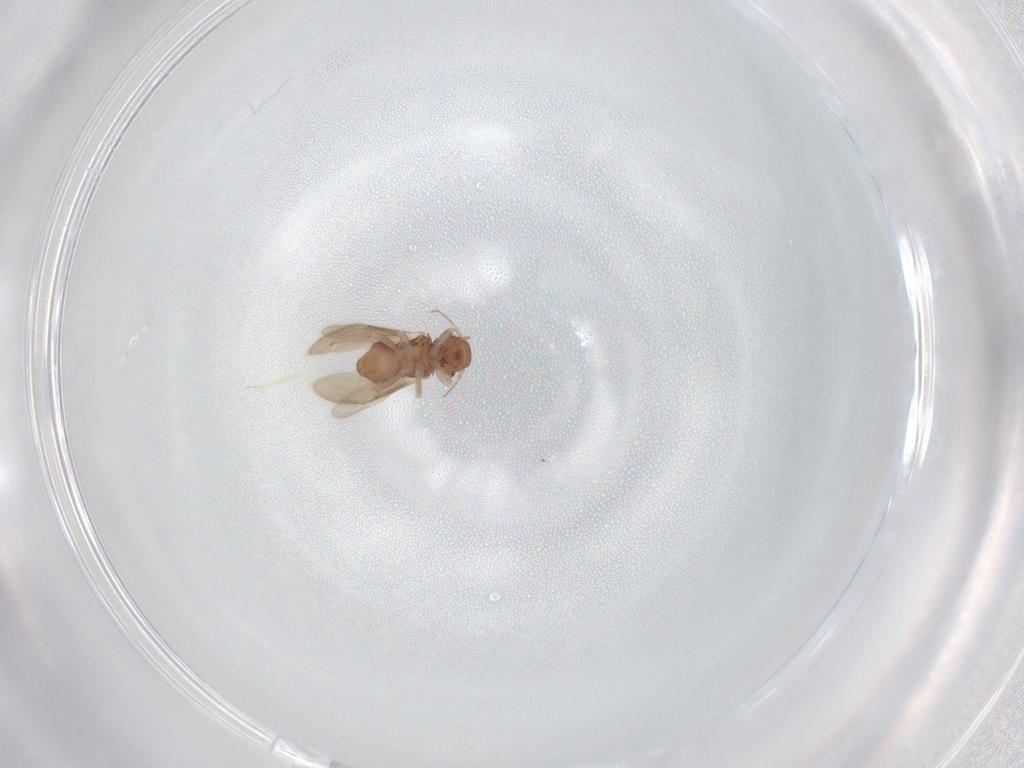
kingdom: Animalia
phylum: Arthropoda
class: Insecta
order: Psocodea
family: Archipsocidae
